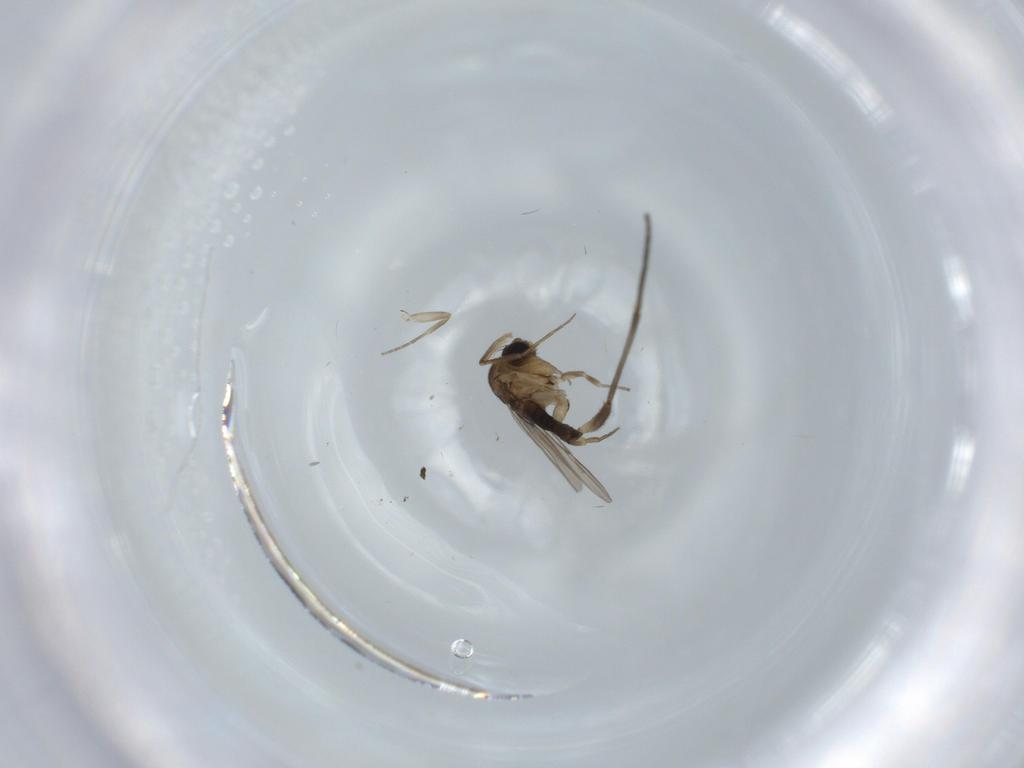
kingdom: Animalia
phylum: Arthropoda
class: Insecta
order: Diptera
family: Phoridae
